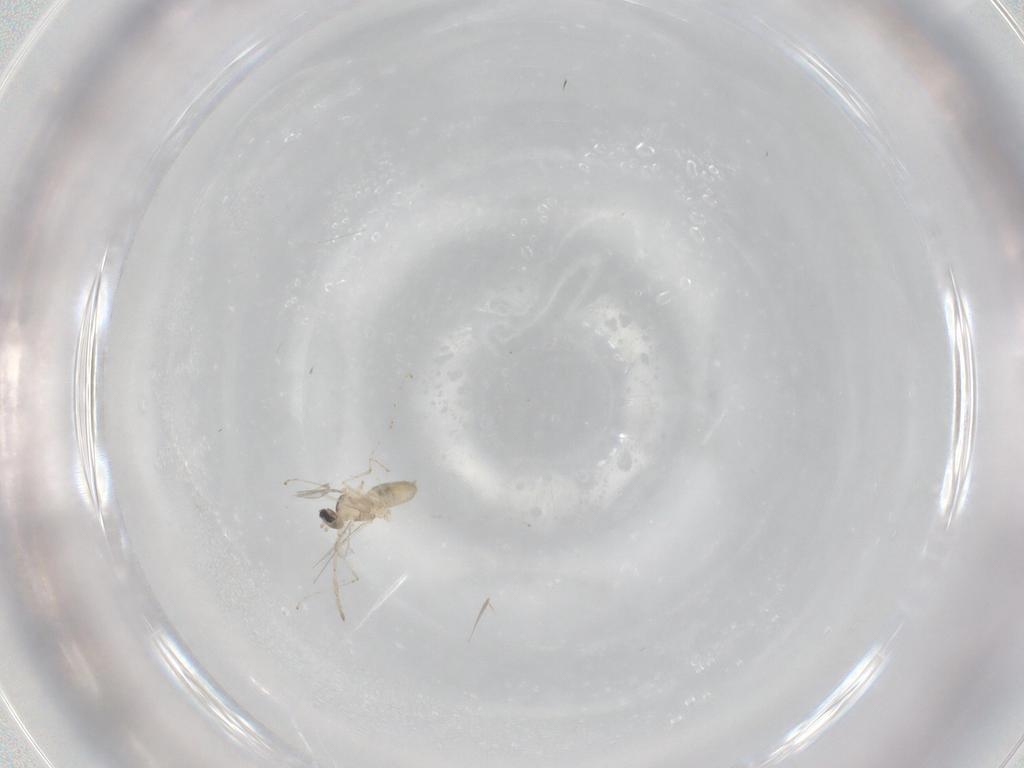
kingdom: Animalia
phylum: Arthropoda
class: Insecta
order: Diptera
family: Cecidomyiidae
